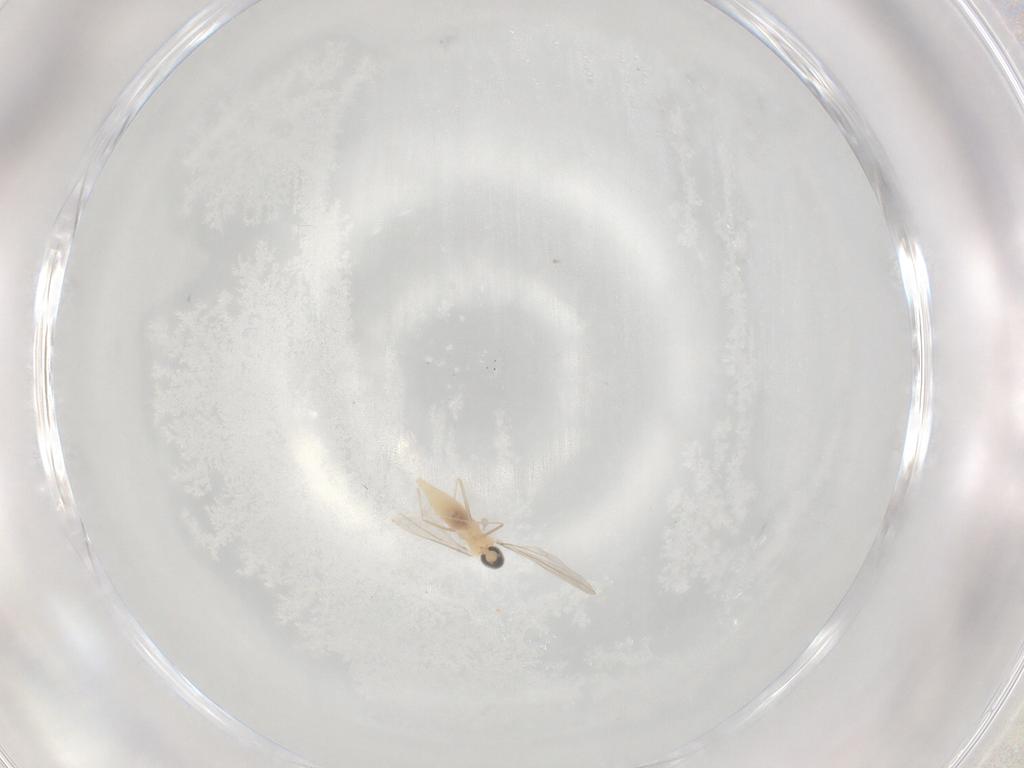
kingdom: Animalia
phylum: Arthropoda
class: Insecta
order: Diptera
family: Cecidomyiidae
